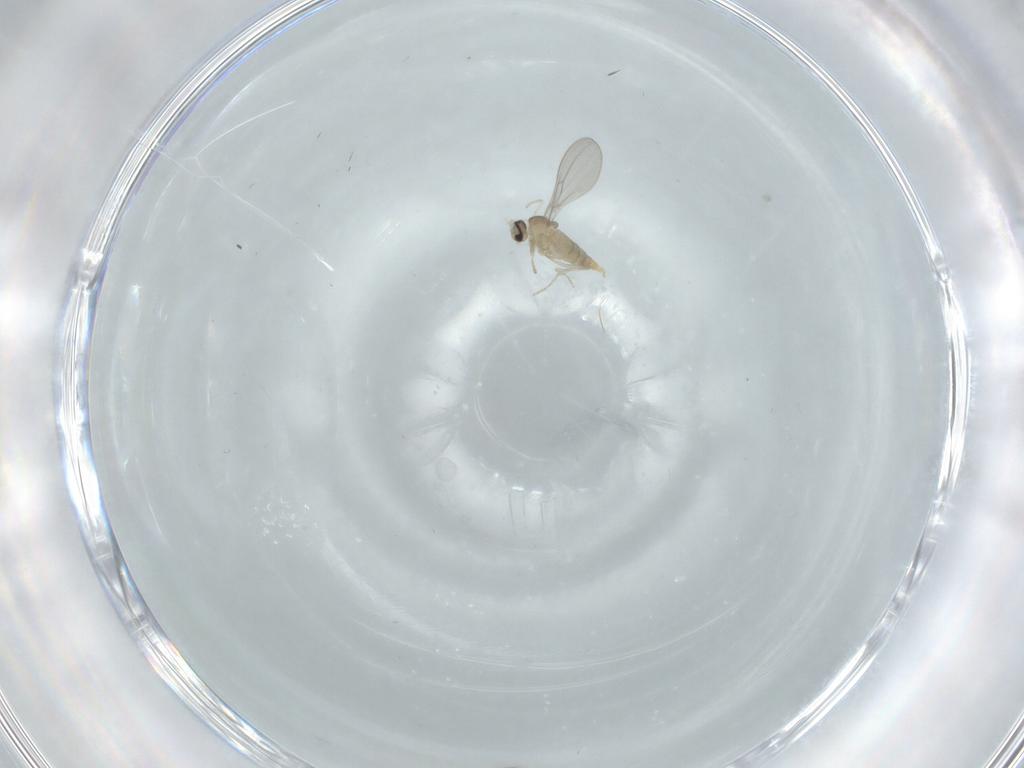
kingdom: Animalia
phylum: Arthropoda
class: Insecta
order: Diptera
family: Cecidomyiidae
